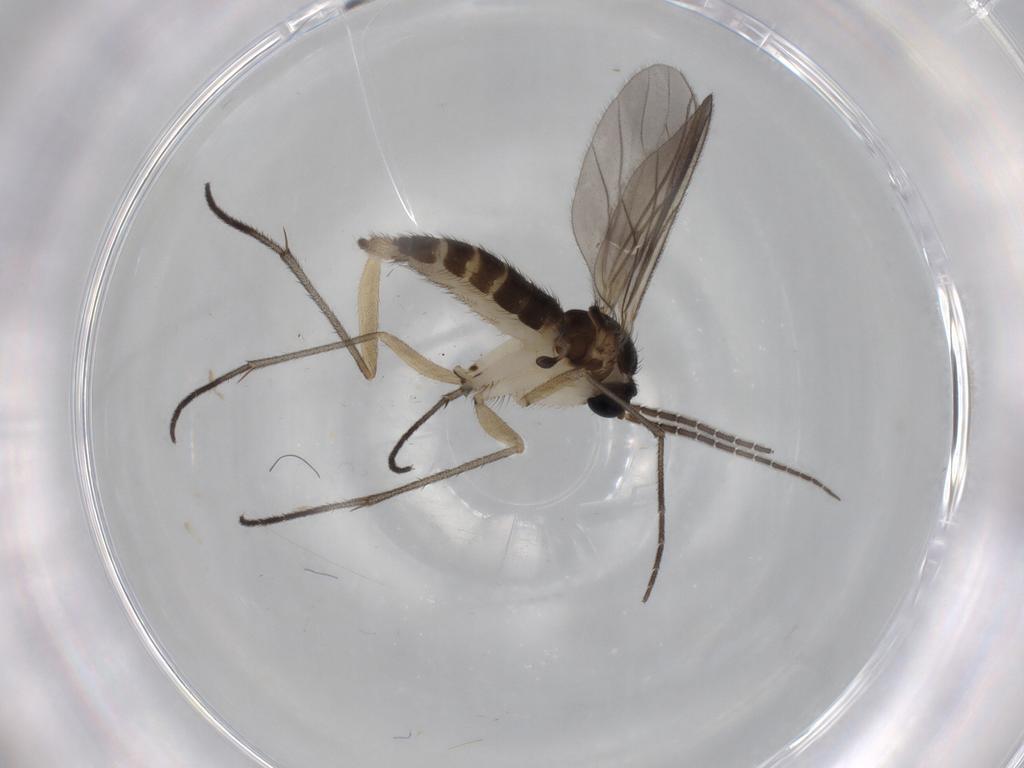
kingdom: Animalia
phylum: Arthropoda
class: Insecta
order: Diptera
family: Sciaridae
